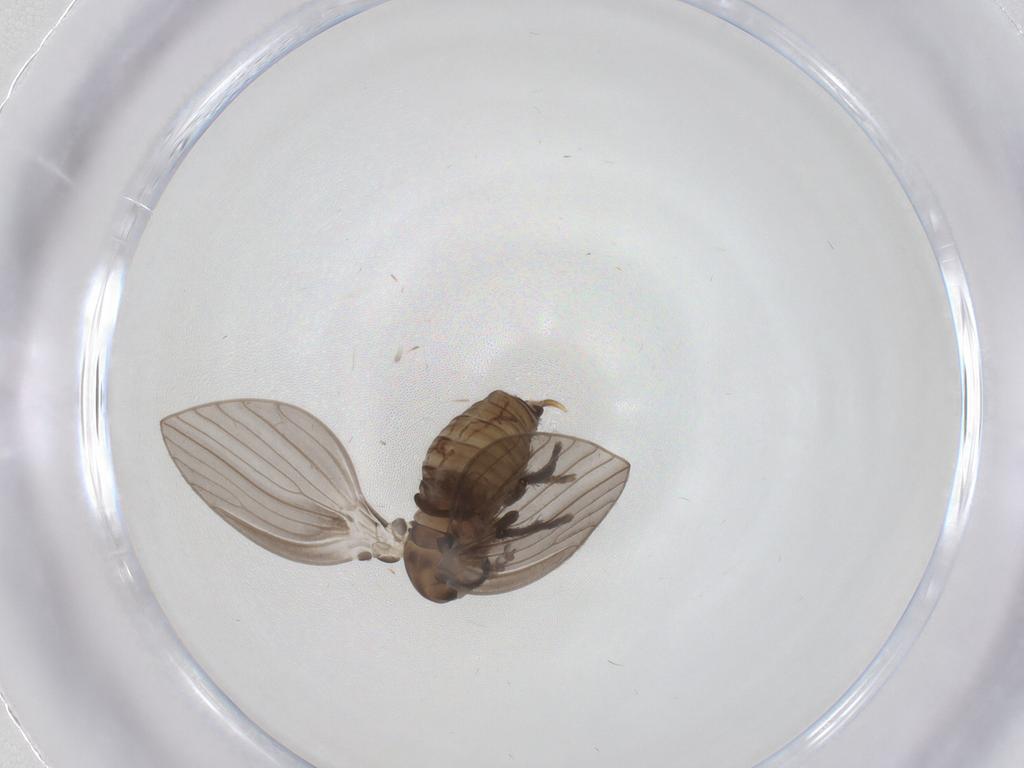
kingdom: Animalia
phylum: Arthropoda
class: Insecta
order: Diptera
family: Psychodidae
